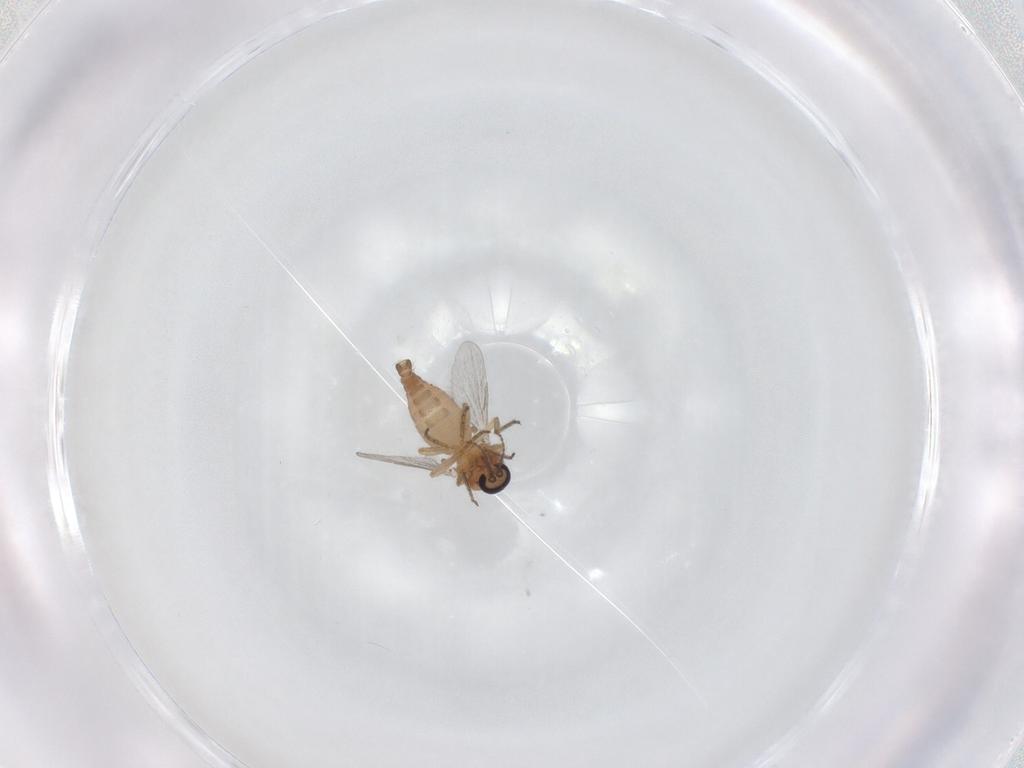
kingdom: Animalia
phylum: Arthropoda
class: Insecta
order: Diptera
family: Ceratopogonidae
